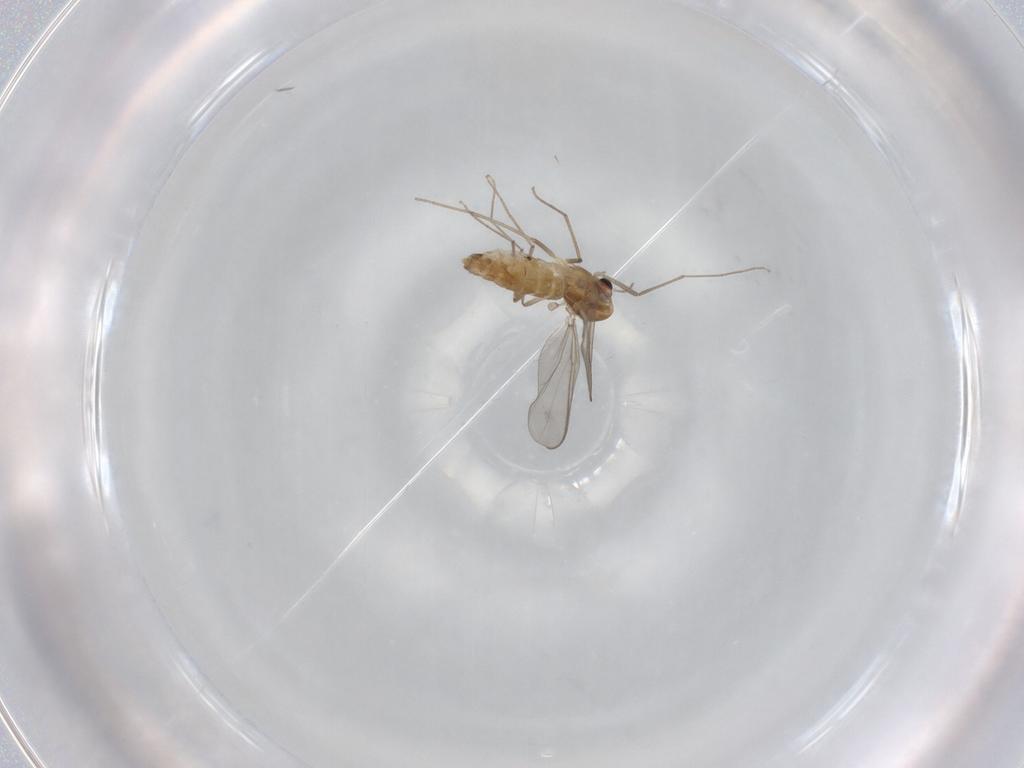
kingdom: Animalia
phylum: Arthropoda
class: Insecta
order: Diptera
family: Chironomidae
